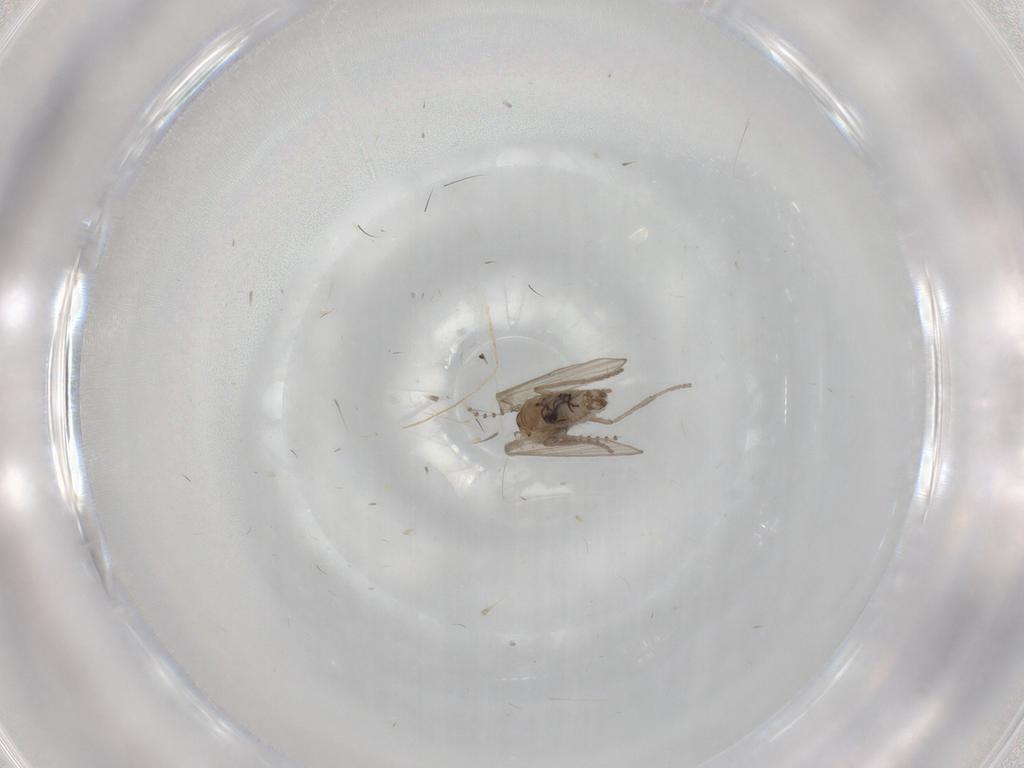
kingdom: Animalia
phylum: Arthropoda
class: Insecta
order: Diptera
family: Psychodidae
